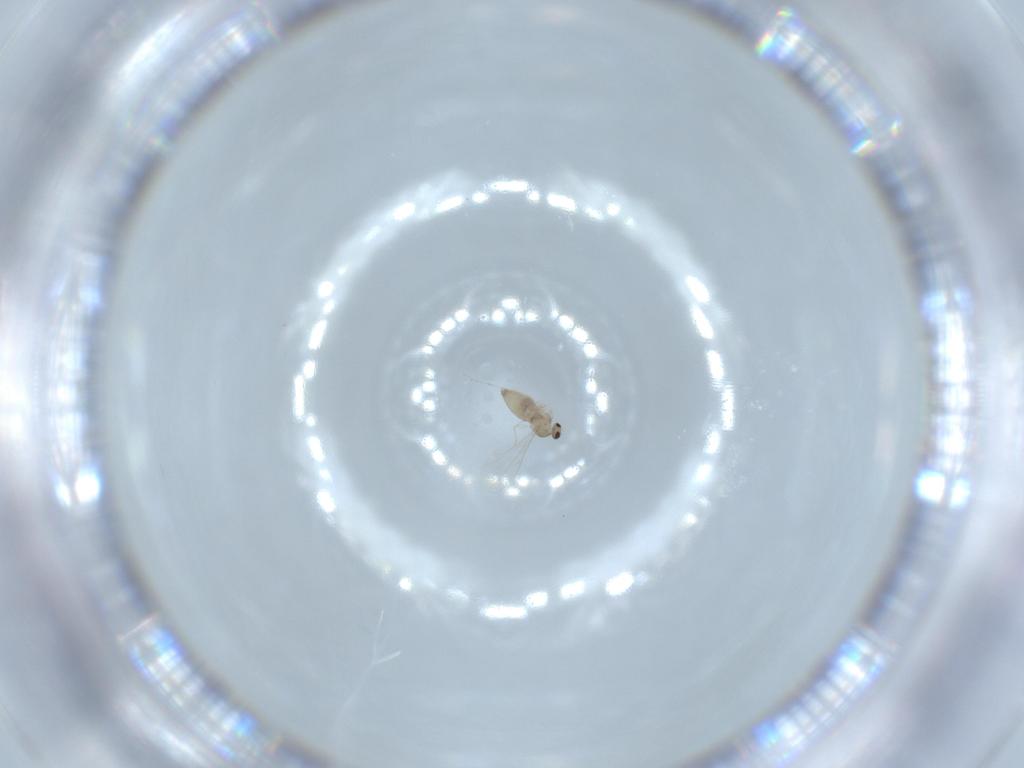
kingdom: Animalia
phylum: Arthropoda
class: Insecta
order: Diptera
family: Cecidomyiidae
